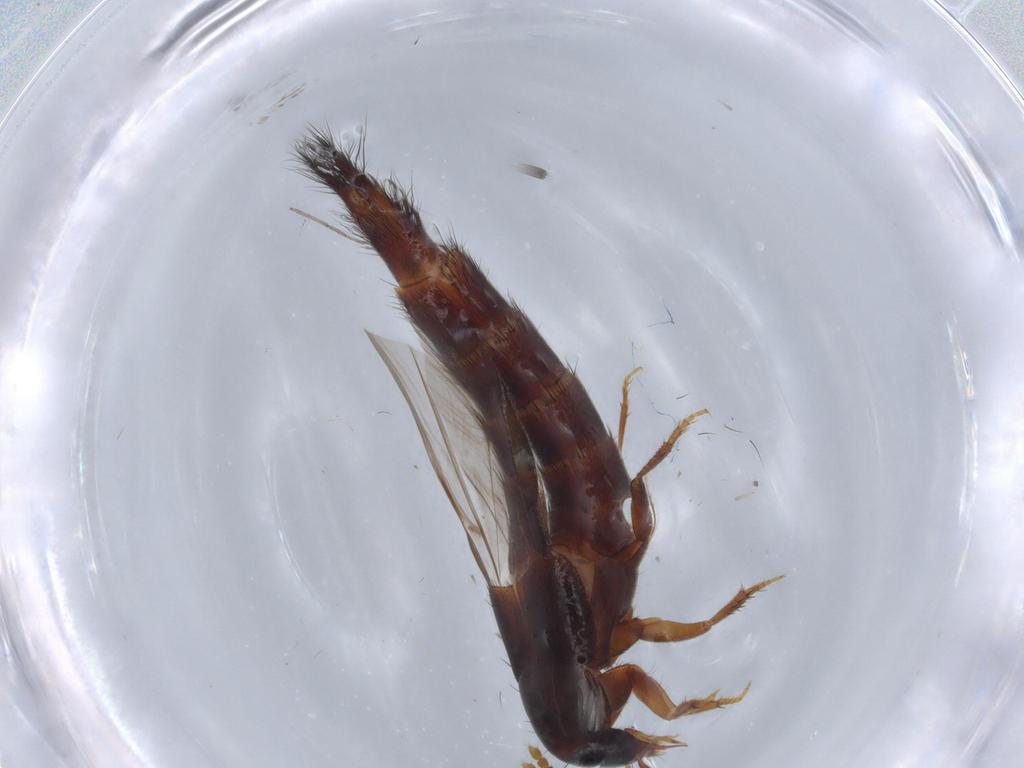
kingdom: Animalia
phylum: Arthropoda
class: Insecta
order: Coleoptera
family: Staphylinidae
